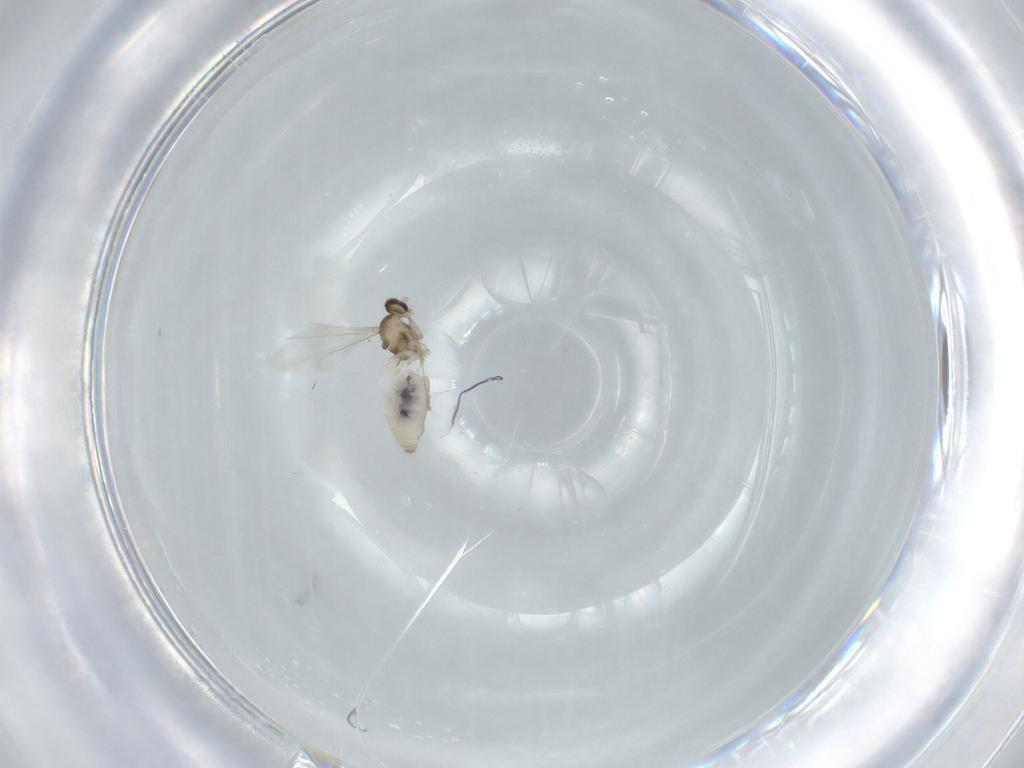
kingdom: Animalia
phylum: Arthropoda
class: Insecta
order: Diptera
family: Cecidomyiidae
